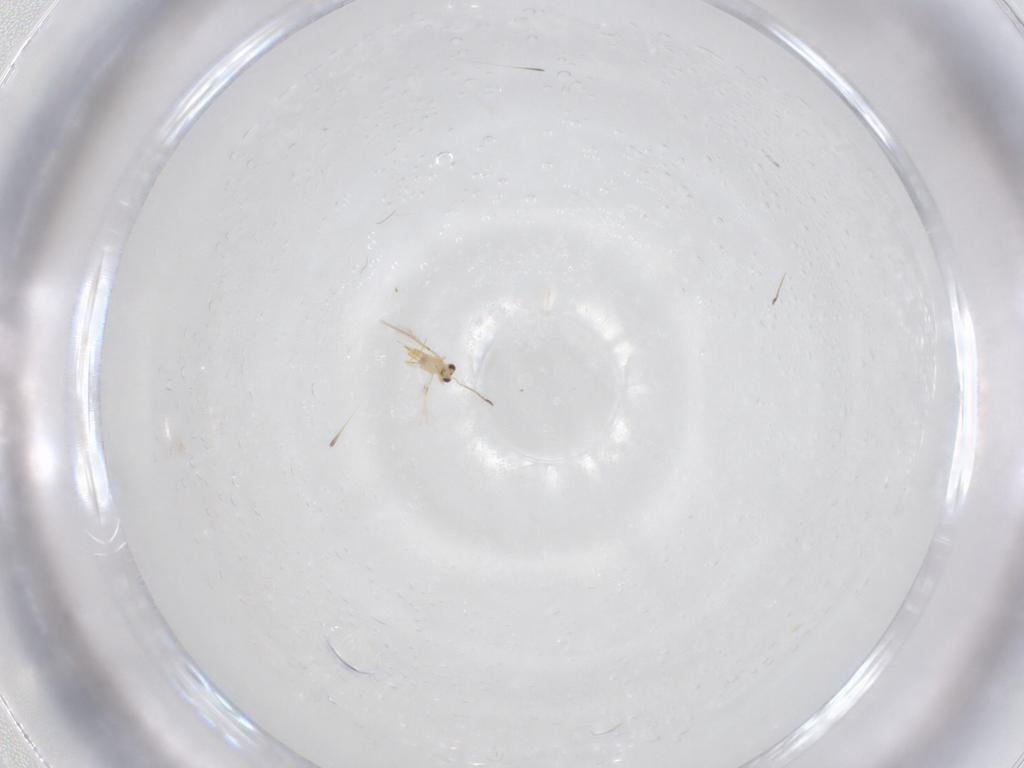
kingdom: Animalia
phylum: Arthropoda
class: Insecta
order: Hymenoptera
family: Mymaridae
